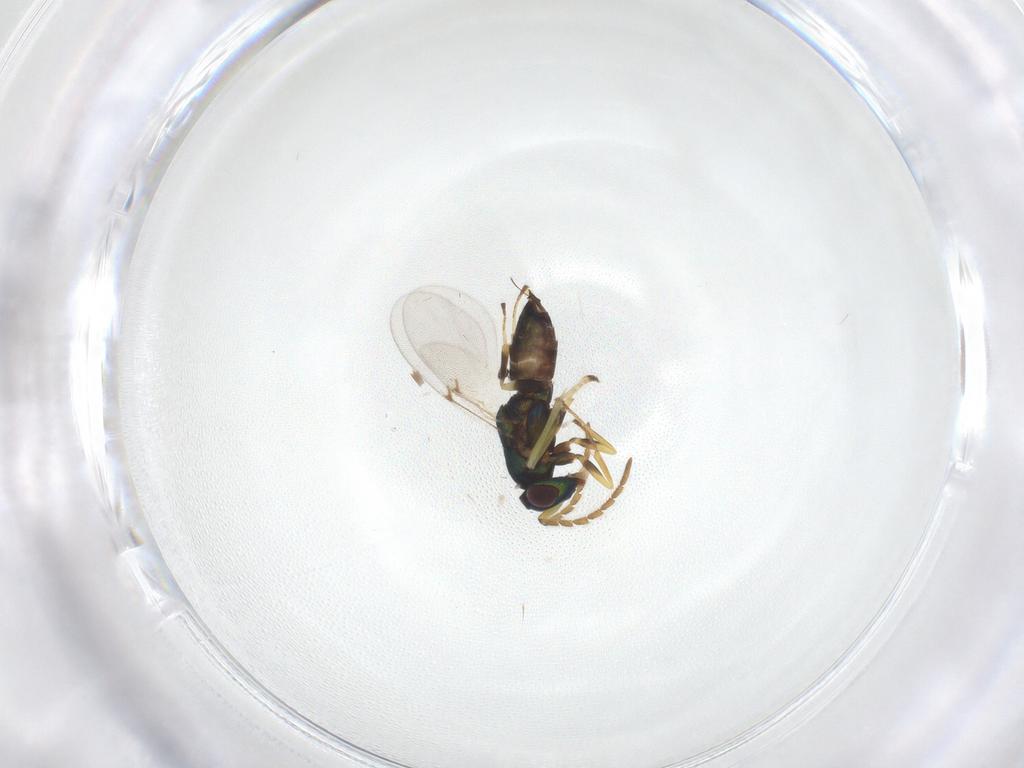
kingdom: Animalia
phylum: Arthropoda
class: Insecta
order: Hymenoptera
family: Encyrtidae
